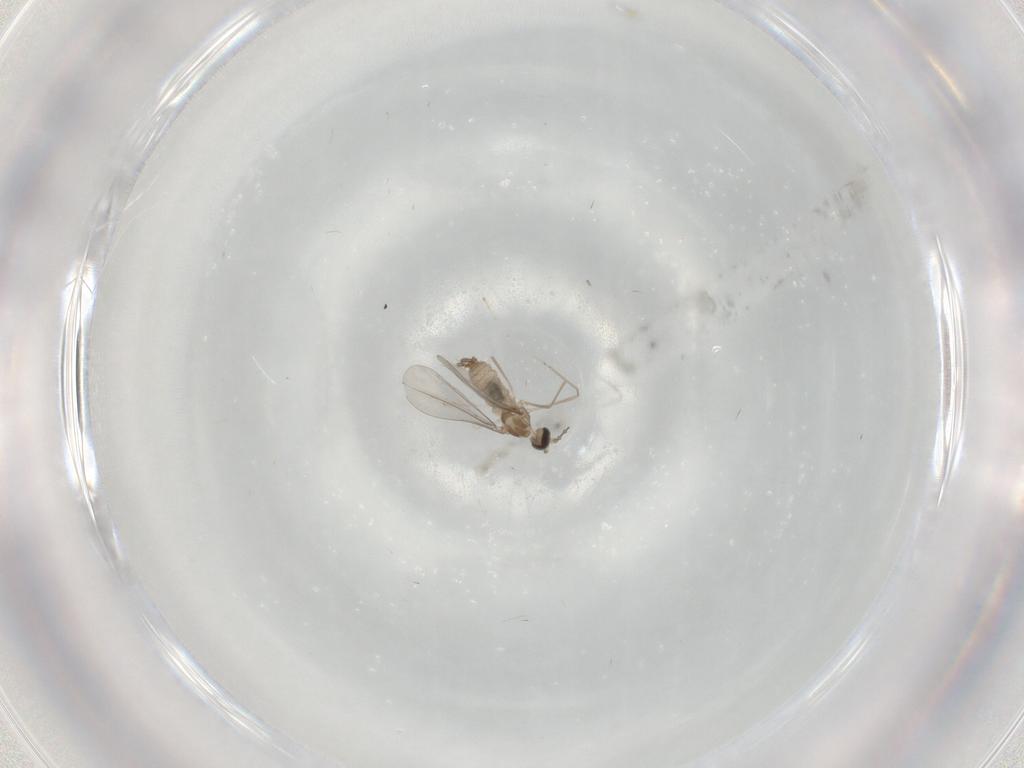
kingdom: Animalia
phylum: Arthropoda
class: Insecta
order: Diptera
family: Cecidomyiidae
